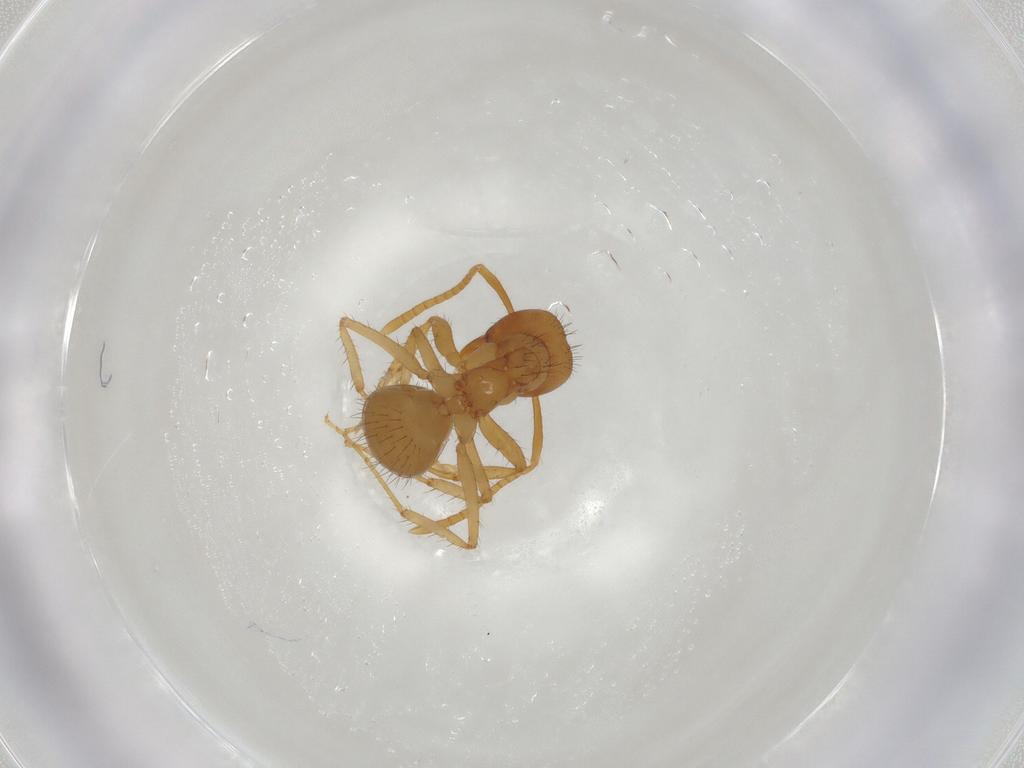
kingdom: Animalia
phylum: Arthropoda
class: Insecta
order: Hymenoptera
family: Formicidae
